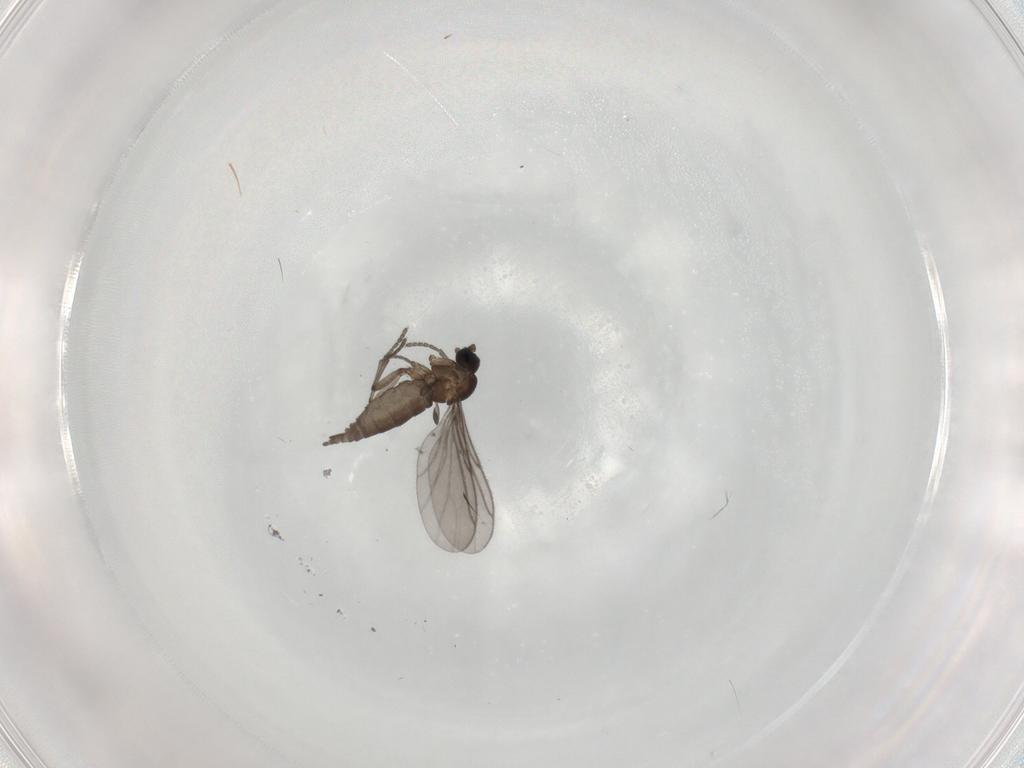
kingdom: Animalia
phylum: Arthropoda
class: Insecta
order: Diptera
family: Sciaridae
